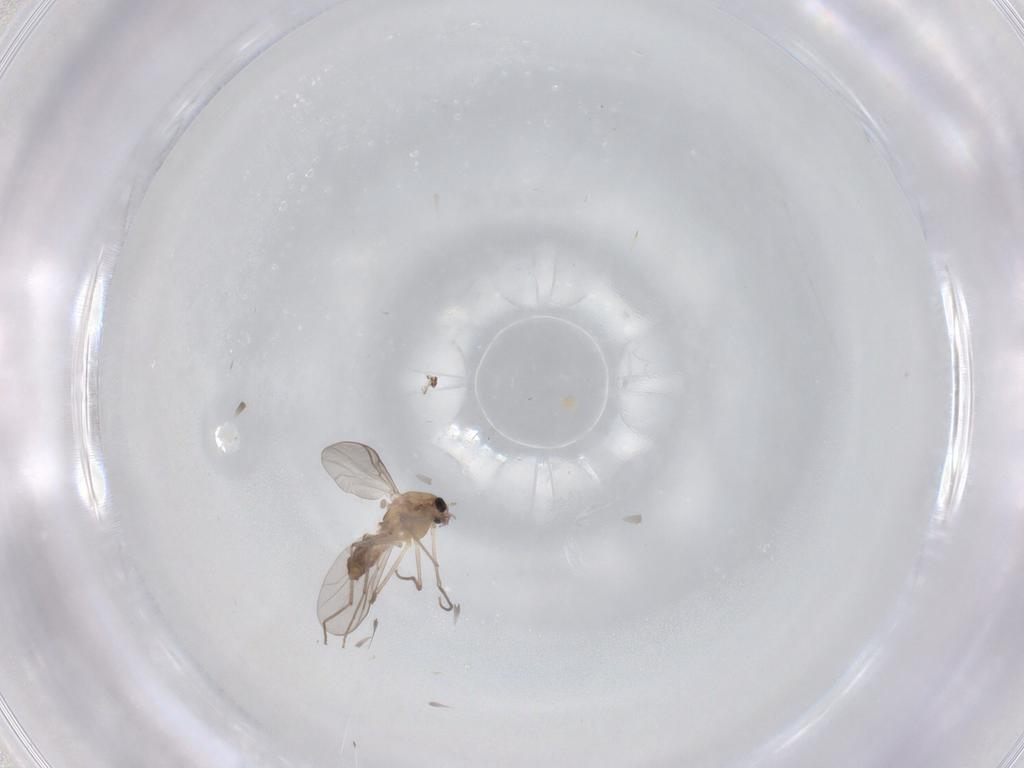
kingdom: Animalia
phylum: Arthropoda
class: Insecta
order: Diptera
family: Chironomidae
